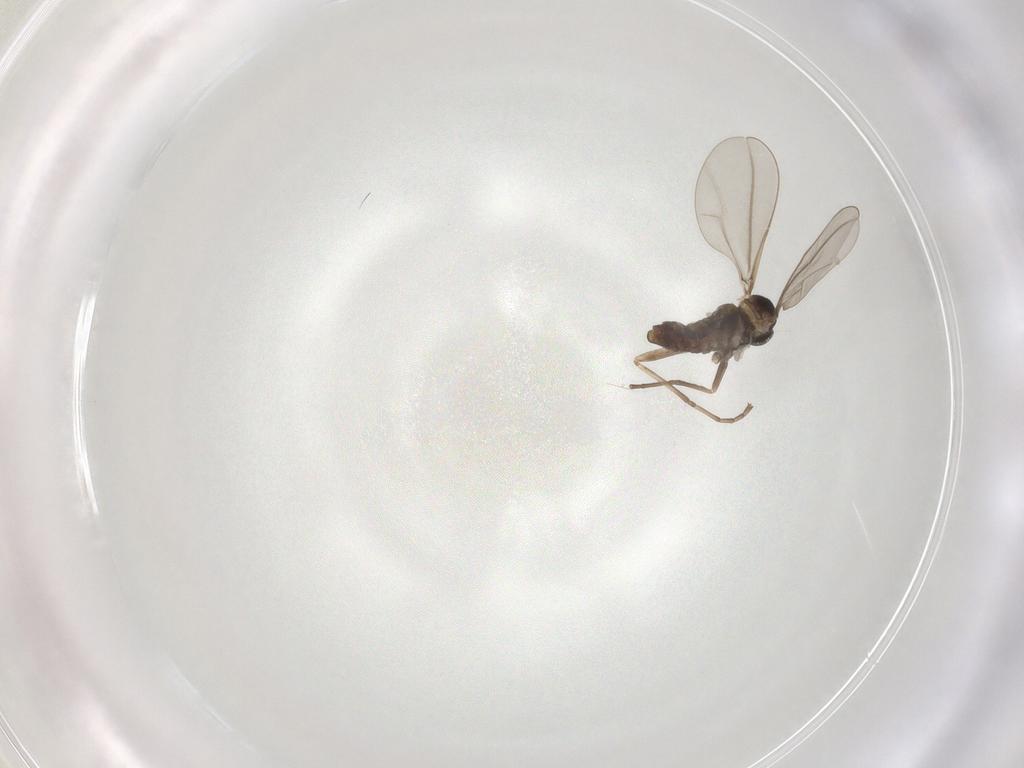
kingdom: Animalia
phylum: Arthropoda
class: Insecta
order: Diptera
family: Cecidomyiidae
